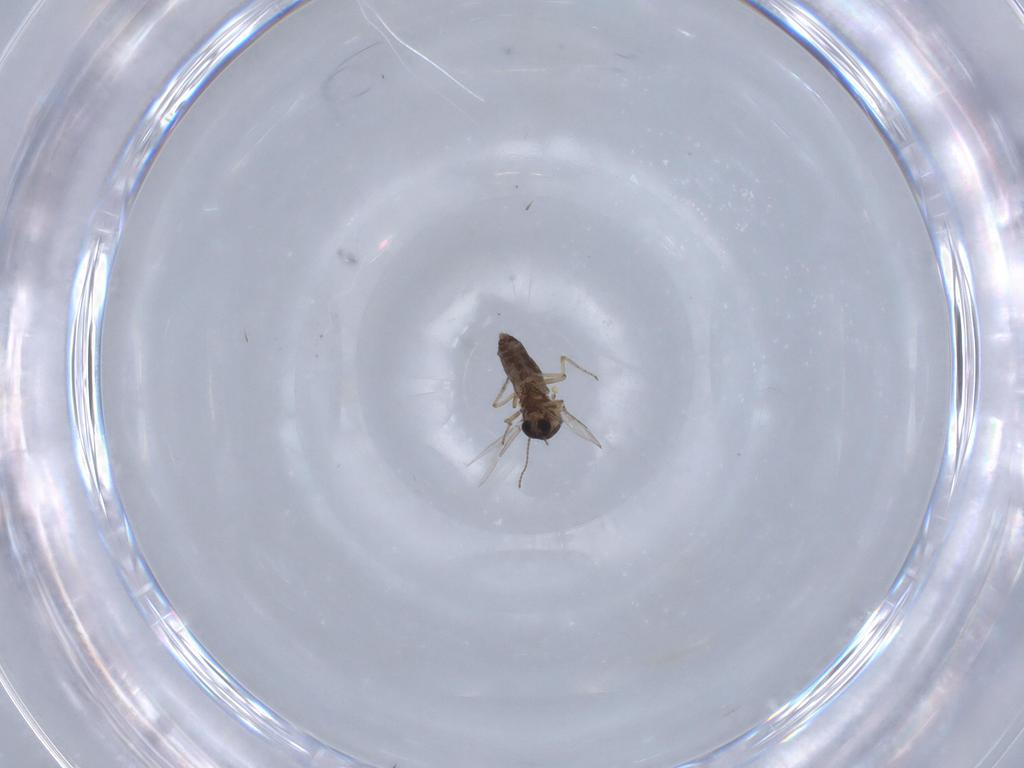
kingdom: Animalia
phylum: Arthropoda
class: Insecta
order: Diptera
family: Ceratopogonidae
